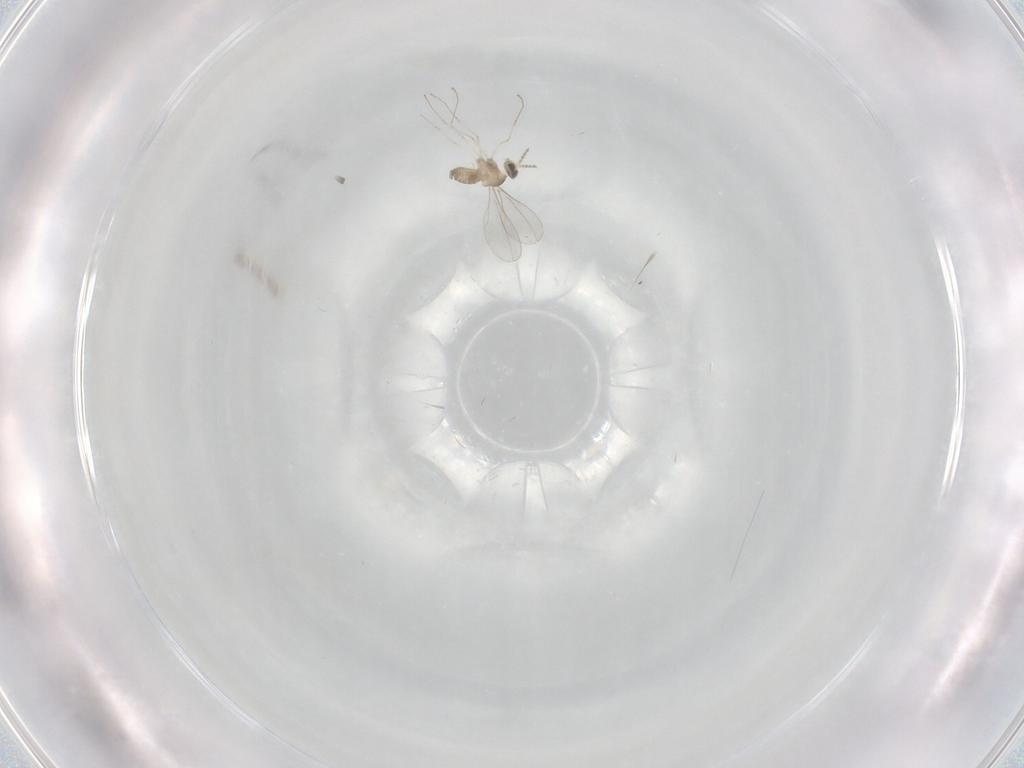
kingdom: Animalia
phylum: Arthropoda
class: Insecta
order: Diptera
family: Cecidomyiidae
